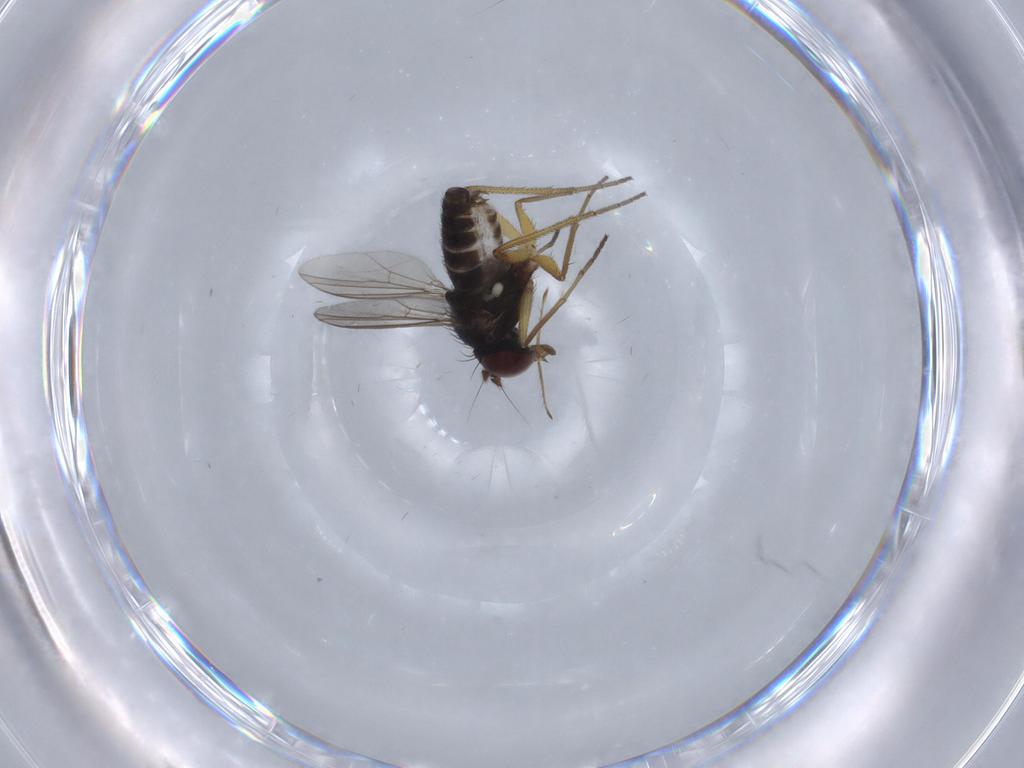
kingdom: Animalia
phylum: Arthropoda
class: Insecta
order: Diptera
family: Dolichopodidae
